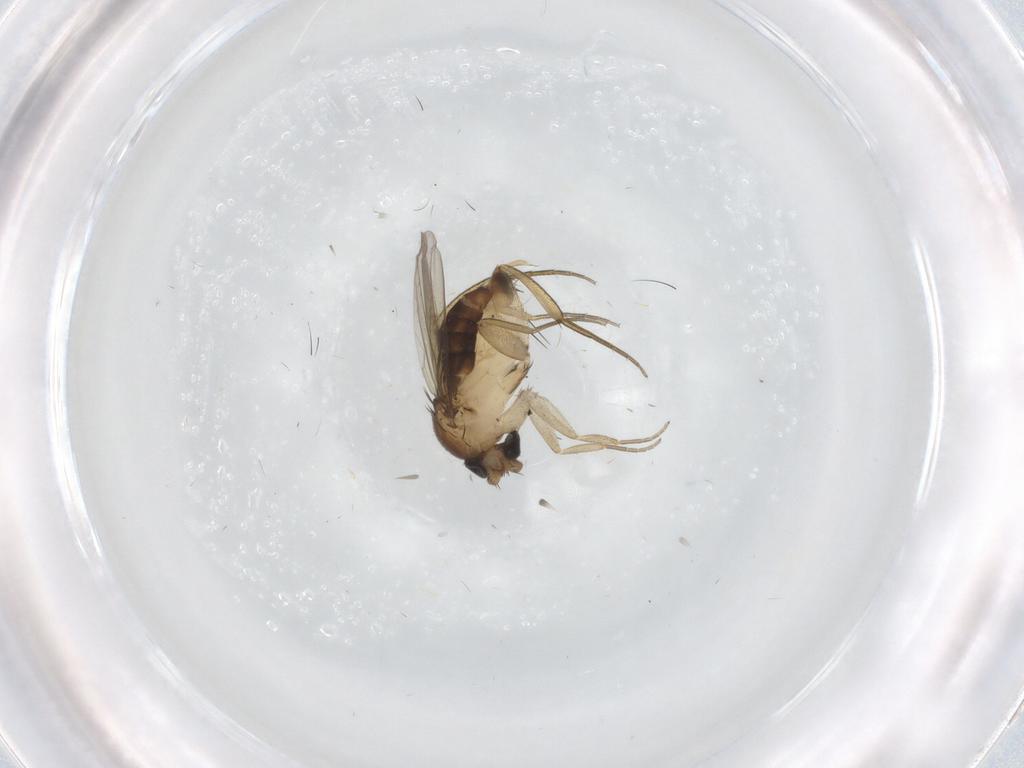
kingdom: Animalia
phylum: Arthropoda
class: Insecta
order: Diptera
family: Phoridae
